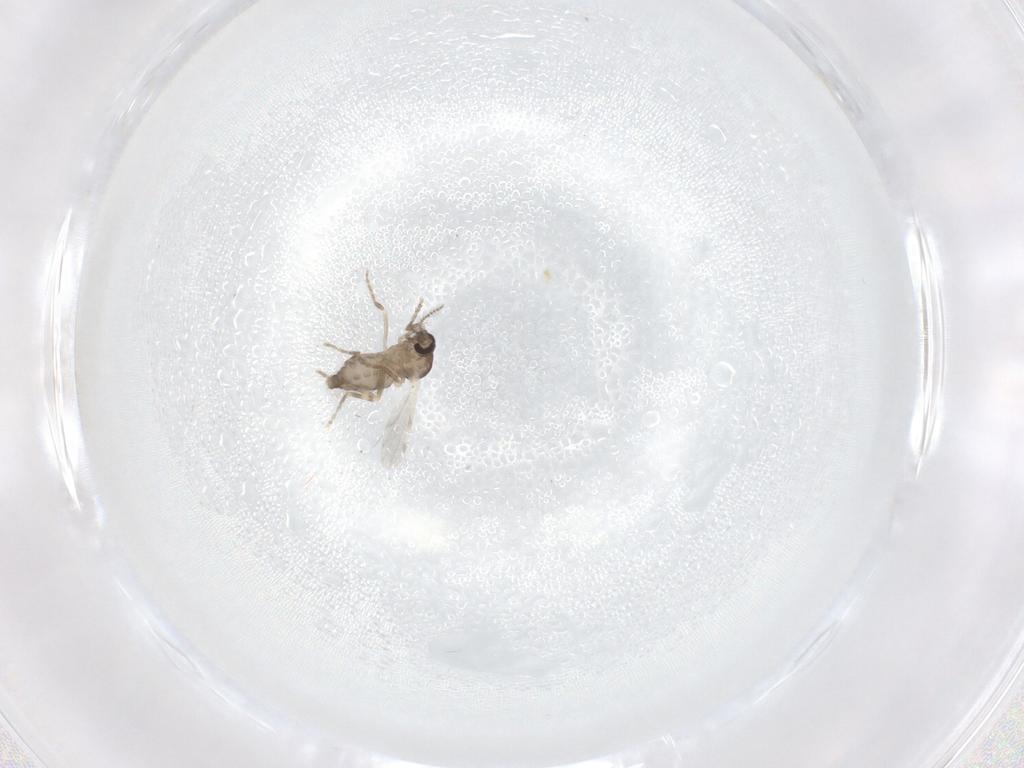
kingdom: Animalia
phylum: Arthropoda
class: Insecta
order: Diptera
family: Ceratopogonidae
